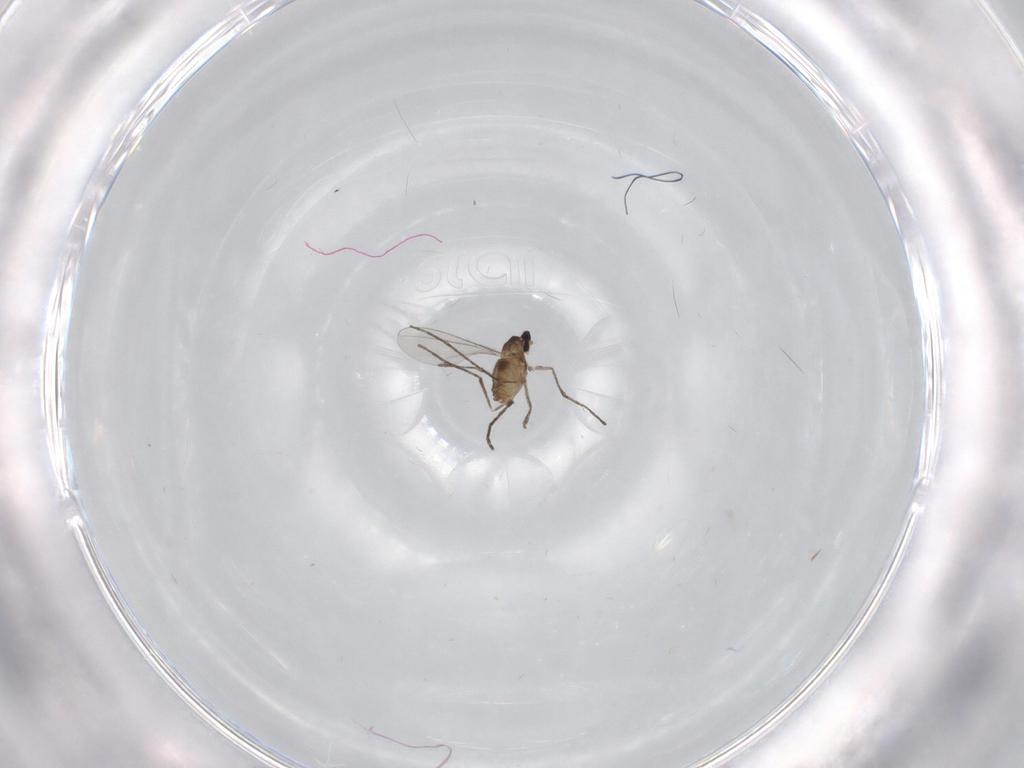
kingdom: Animalia
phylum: Arthropoda
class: Insecta
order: Diptera
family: Cecidomyiidae
